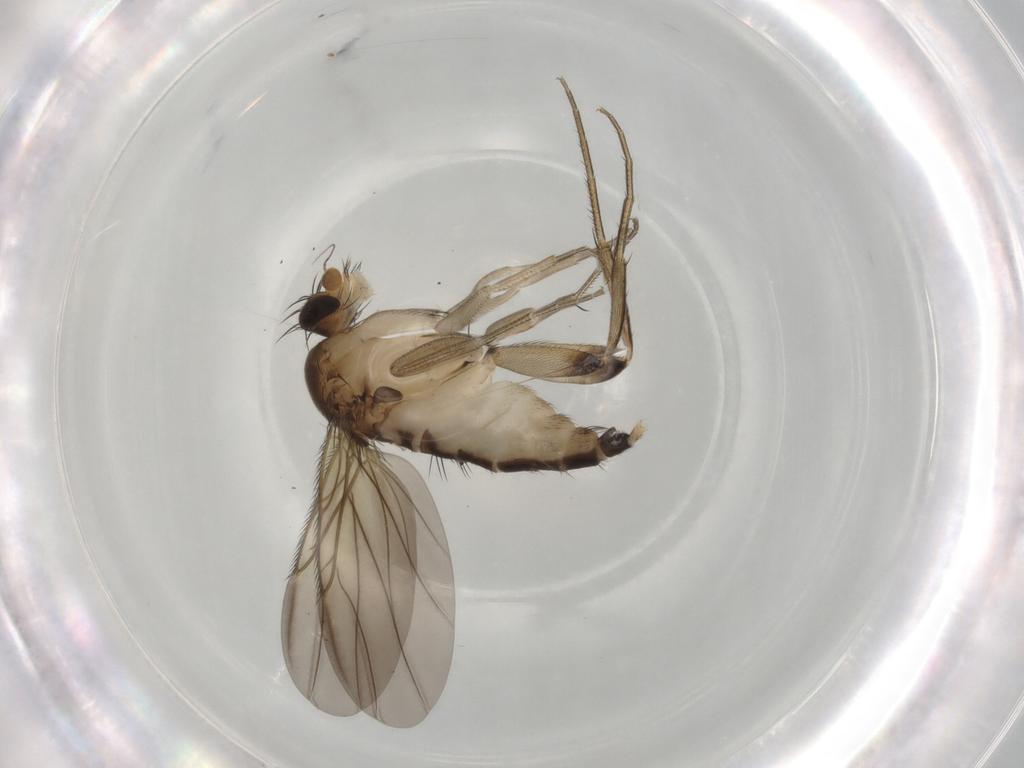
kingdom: Animalia
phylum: Arthropoda
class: Insecta
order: Diptera
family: Phoridae
